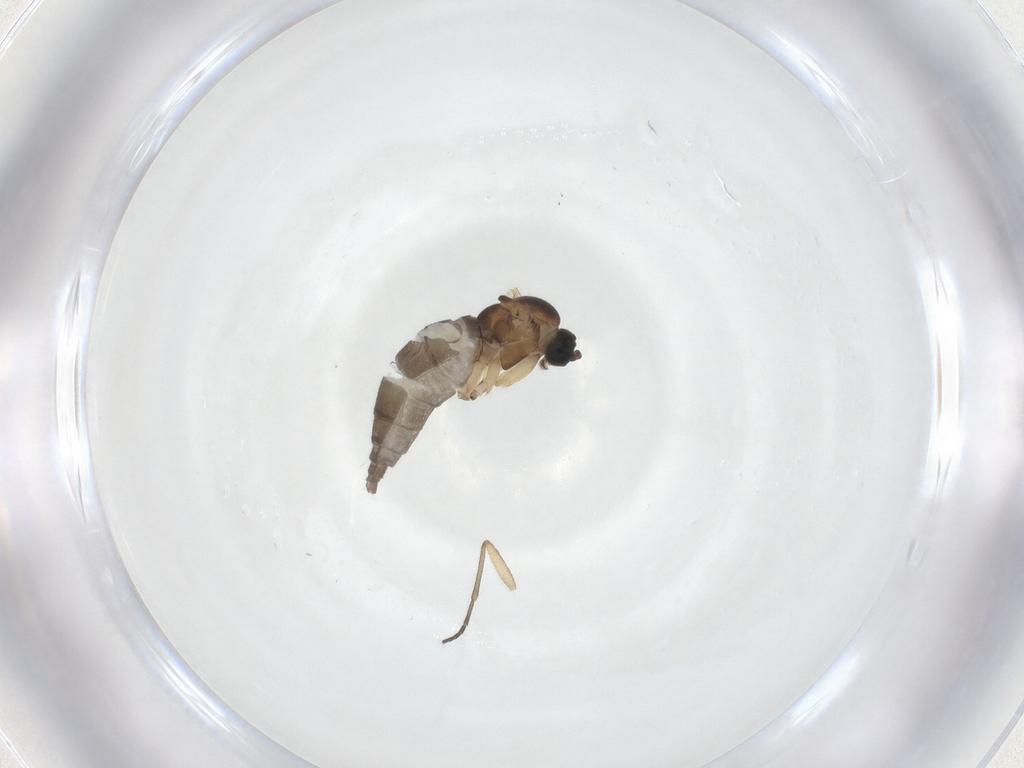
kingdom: Animalia
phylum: Arthropoda
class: Insecta
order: Diptera
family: Sciaridae
